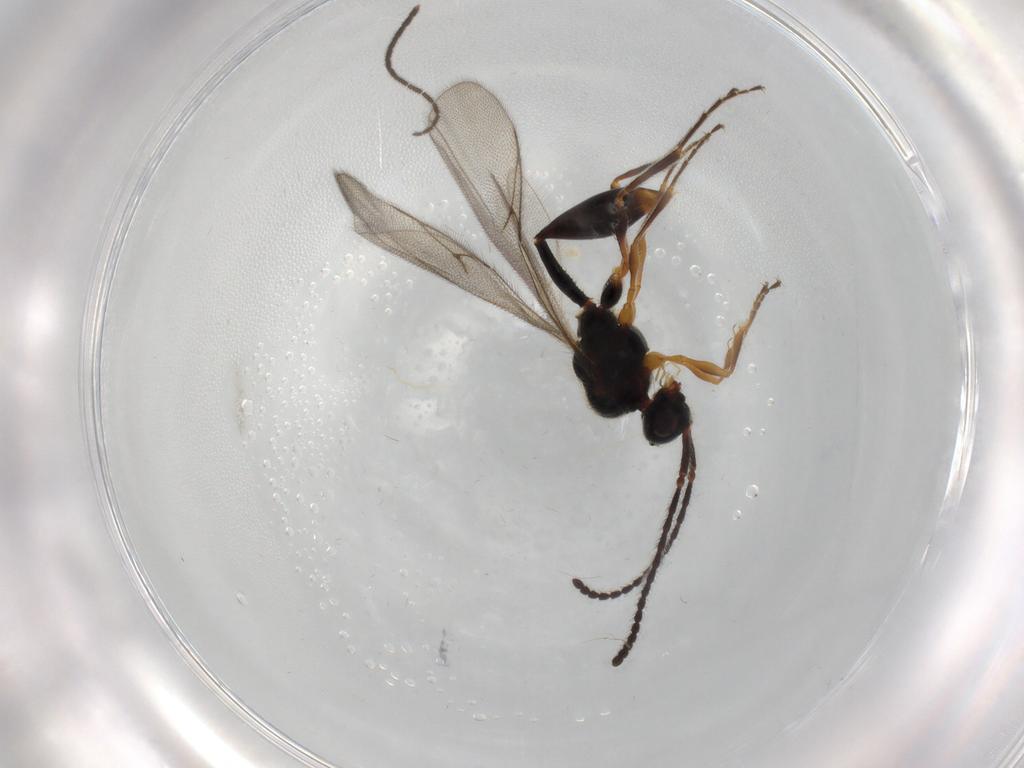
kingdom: Animalia
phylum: Arthropoda
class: Insecta
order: Hymenoptera
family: Diapriidae
